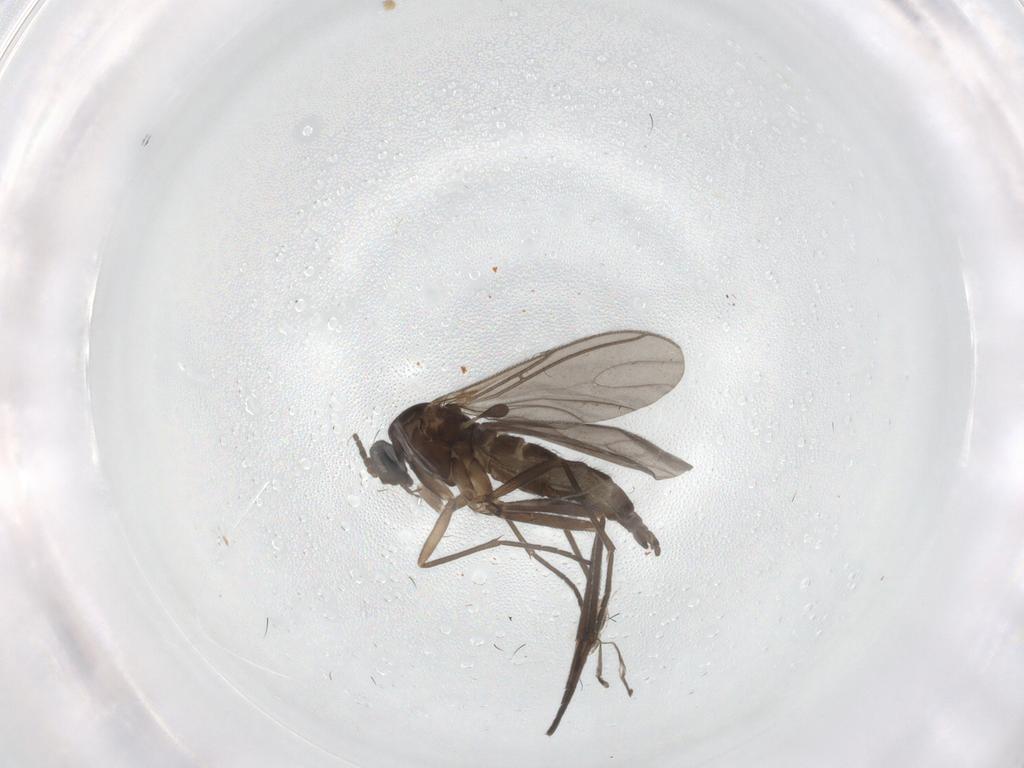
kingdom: Animalia
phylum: Arthropoda
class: Insecta
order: Diptera
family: Sciaridae
